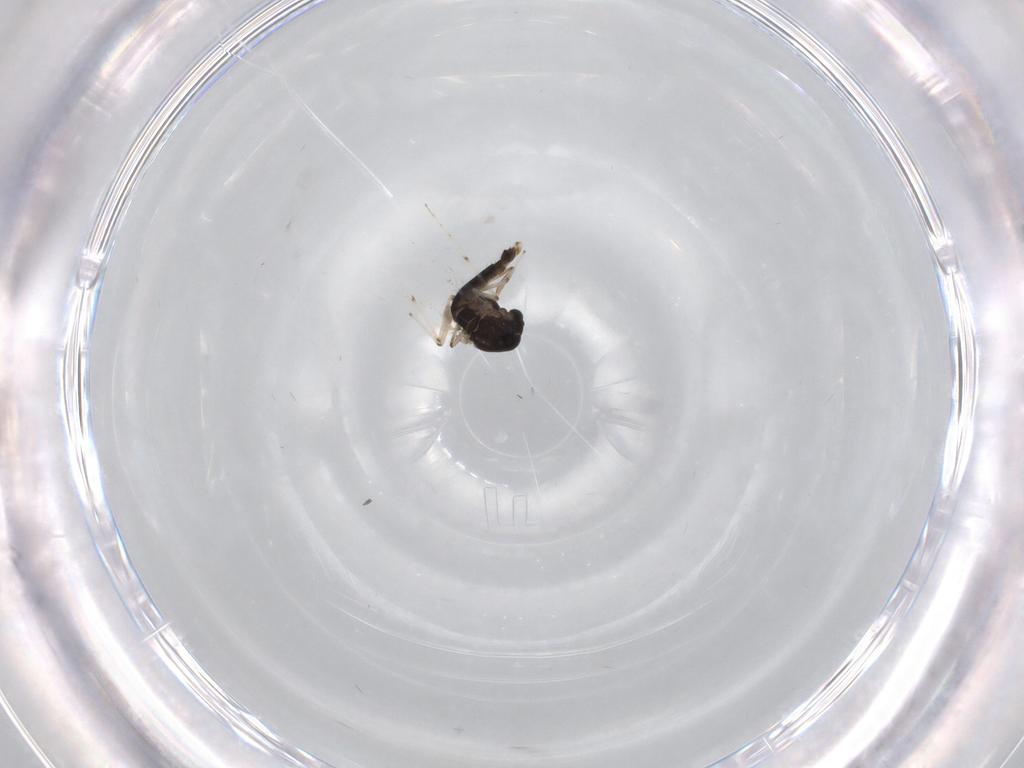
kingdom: Animalia
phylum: Arthropoda
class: Insecta
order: Diptera
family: Chironomidae
